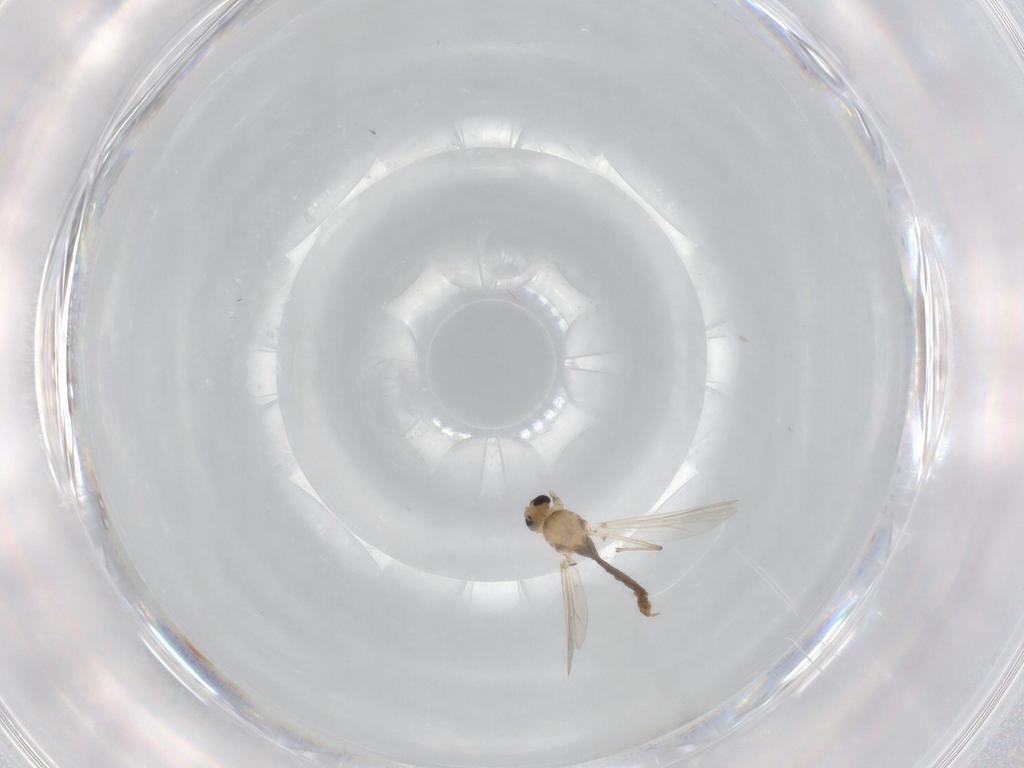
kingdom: Animalia
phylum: Arthropoda
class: Insecta
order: Diptera
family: Chironomidae
